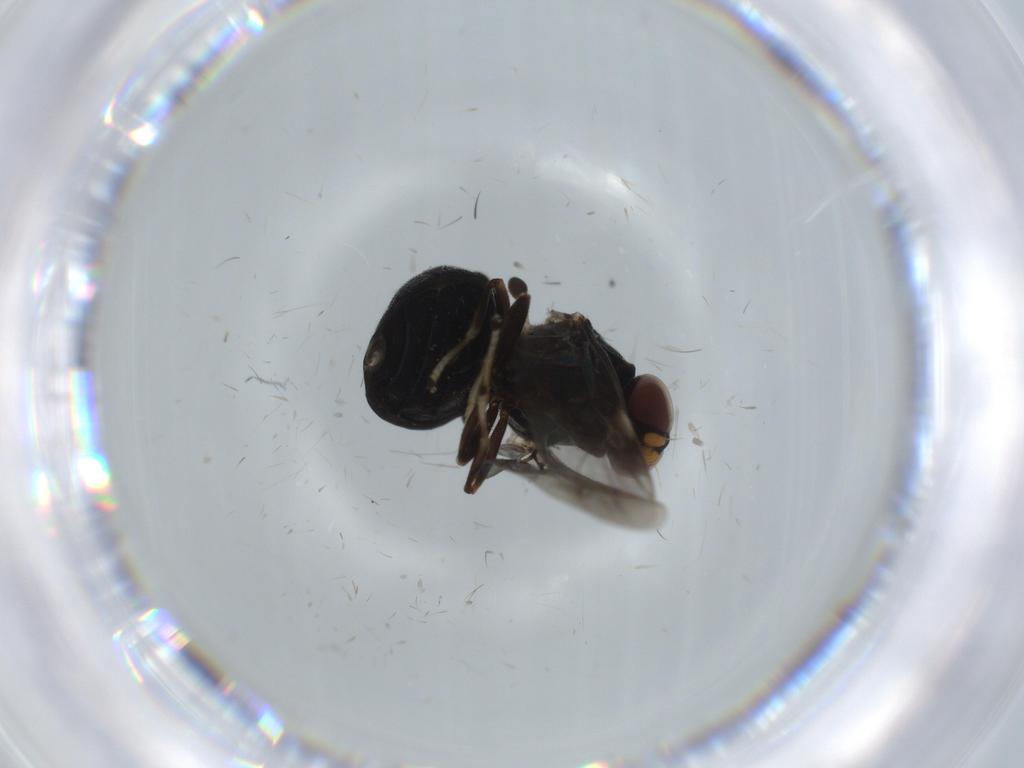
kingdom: Animalia
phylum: Arthropoda
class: Insecta
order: Diptera
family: Stratiomyidae
